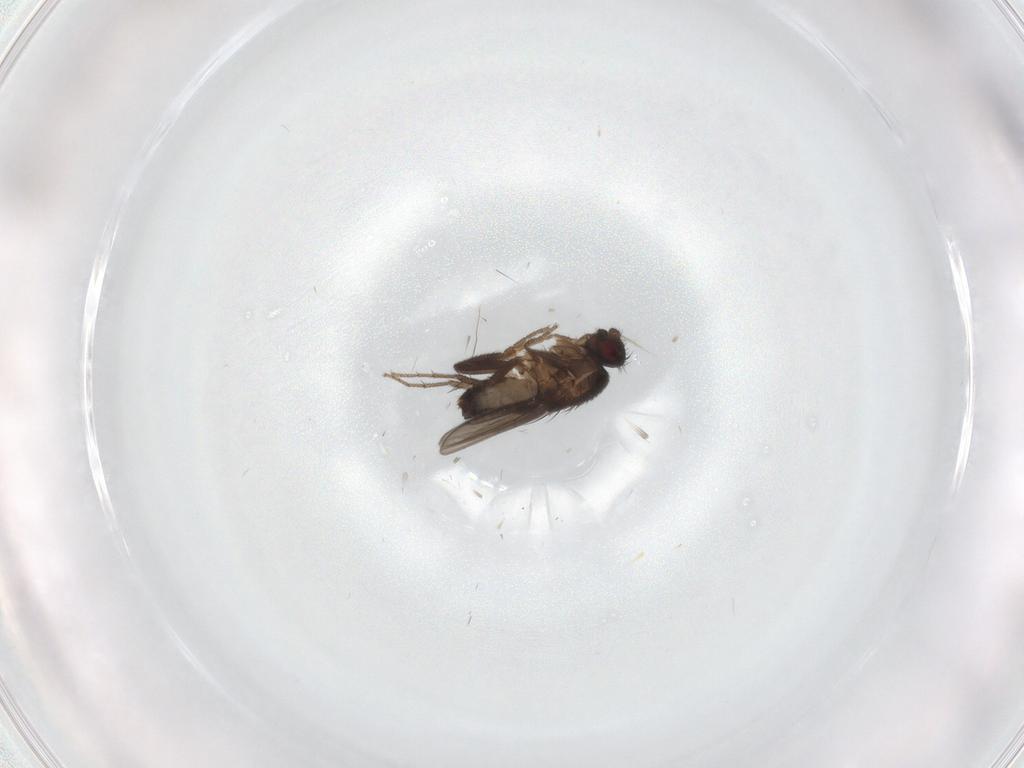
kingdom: Animalia
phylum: Arthropoda
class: Insecta
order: Diptera
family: Sphaeroceridae
